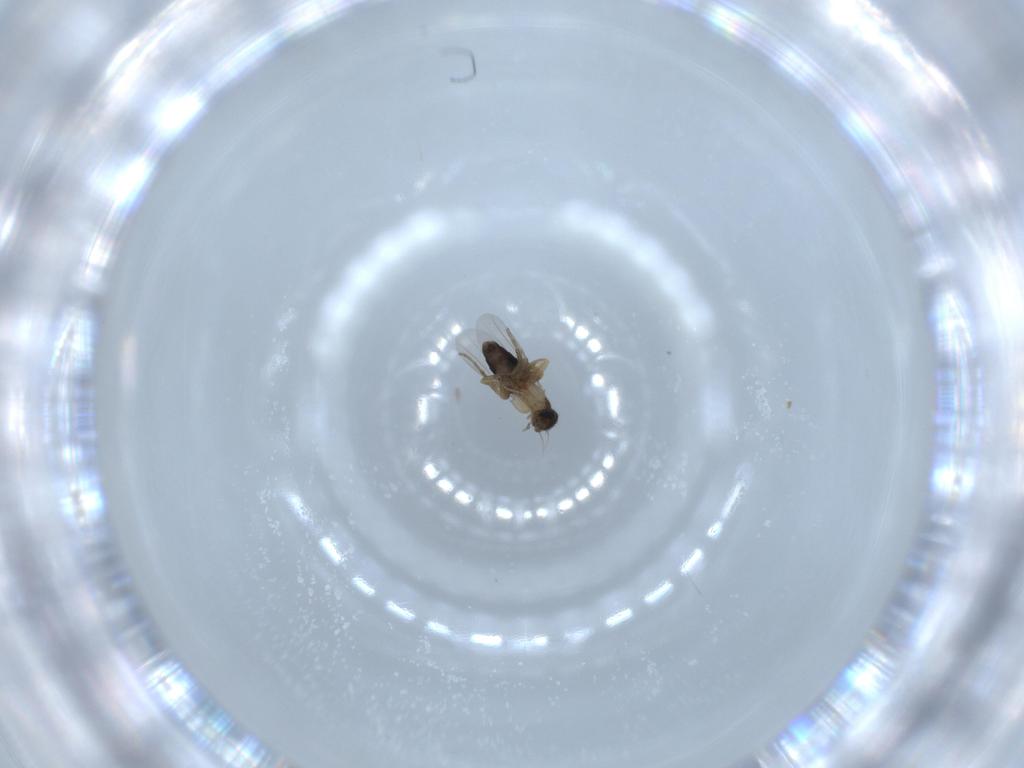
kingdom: Animalia
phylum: Arthropoda
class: Insecta
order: Diptera
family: Phoridae
